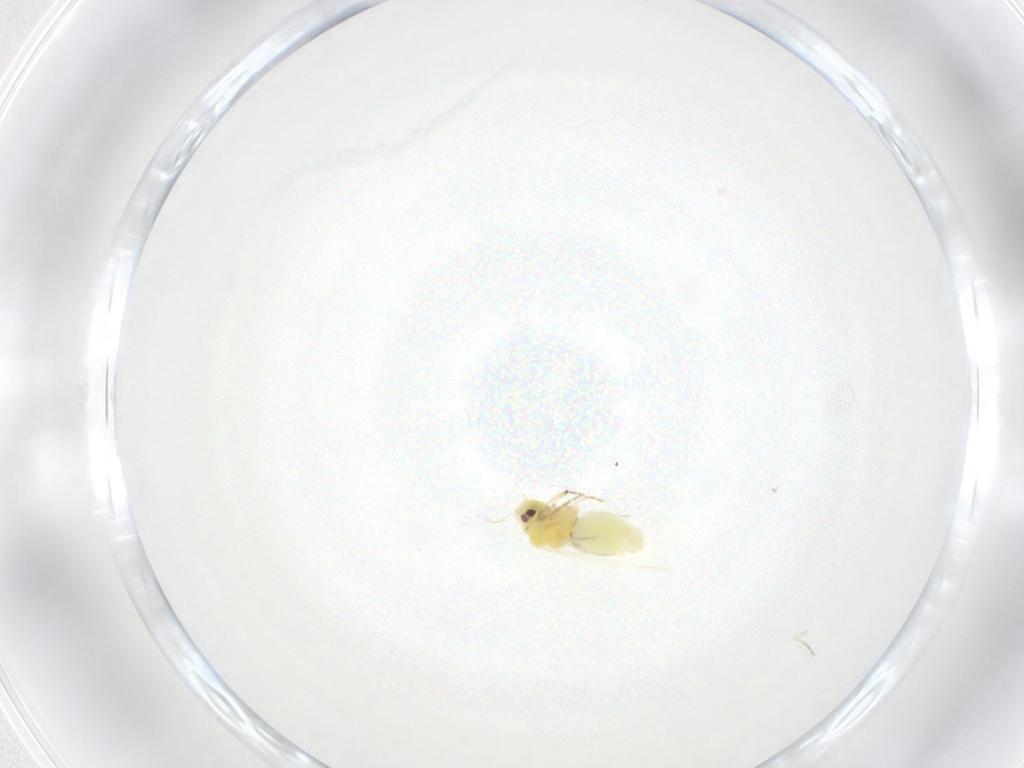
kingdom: Animalia
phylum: Arthropoda
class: Insecta
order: Hemiptera
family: Aleyrodidae
